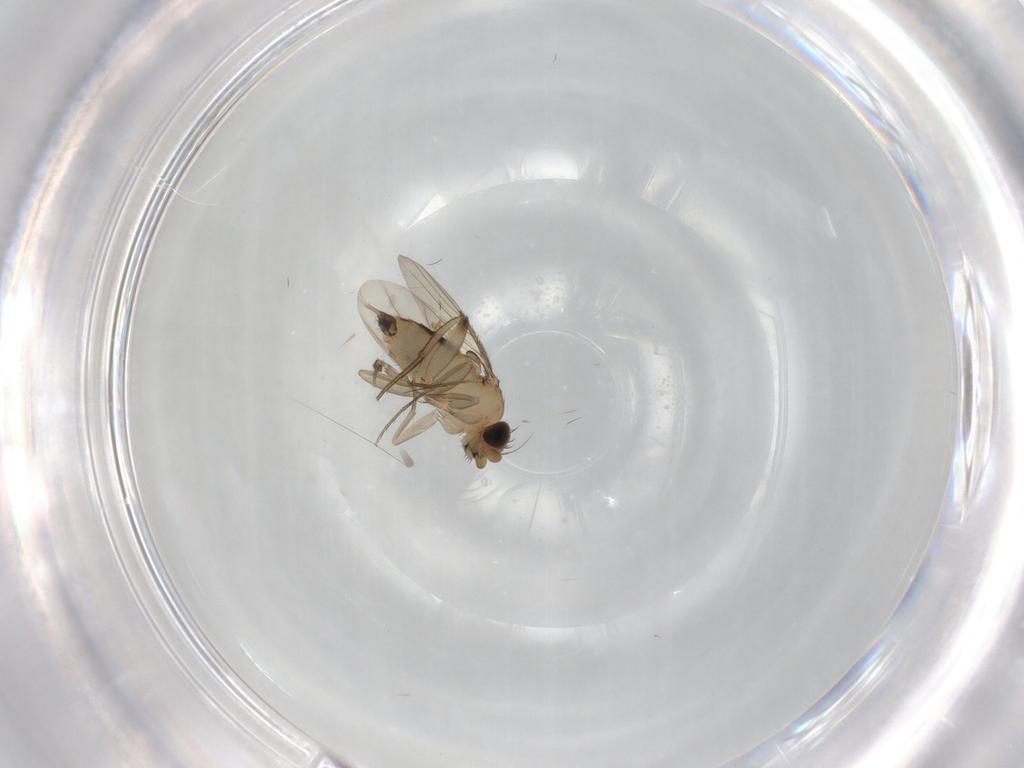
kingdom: Animalia
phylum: Arthropoda
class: Insecta
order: Diptera
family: Phoridae
